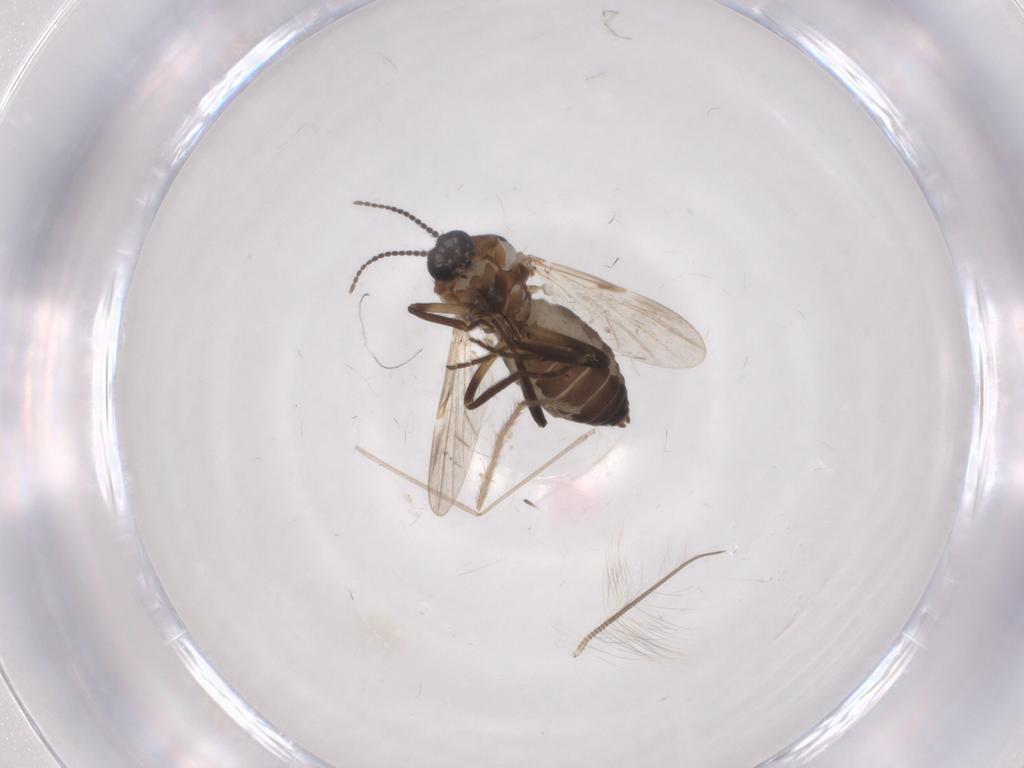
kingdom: Animalia
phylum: Arthropoda
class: Insecta
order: Diptera
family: Ceratopogonidae
